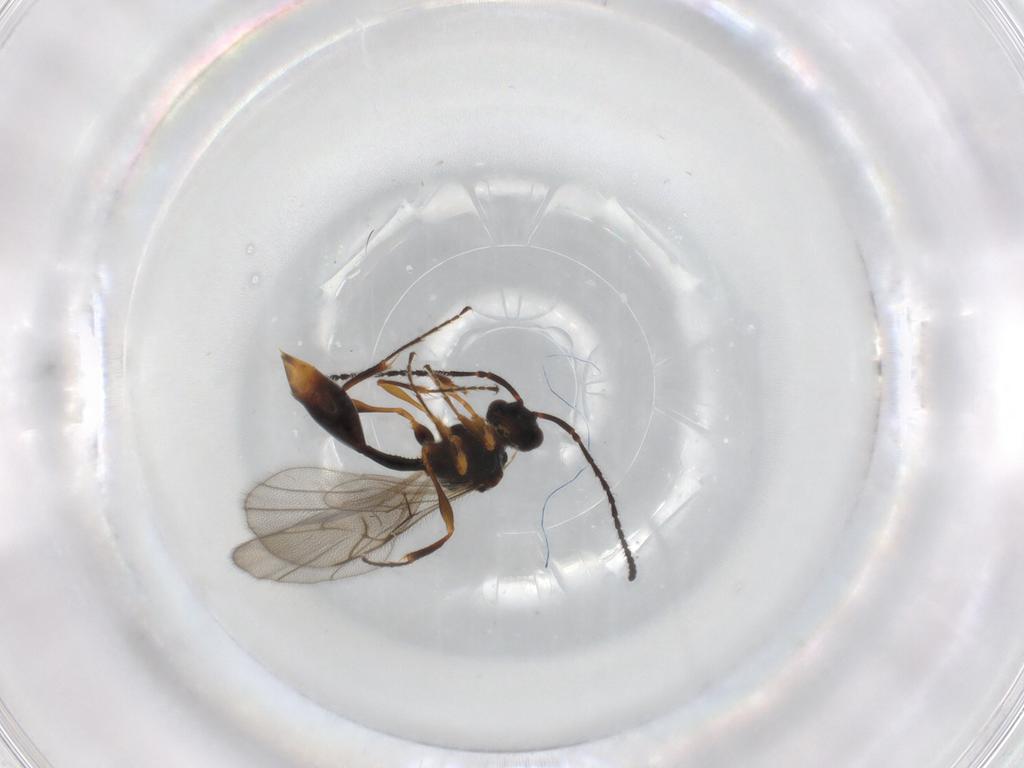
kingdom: Animalia
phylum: Arthropoda
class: Insecta
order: Hymenoptera
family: Diapriidae
